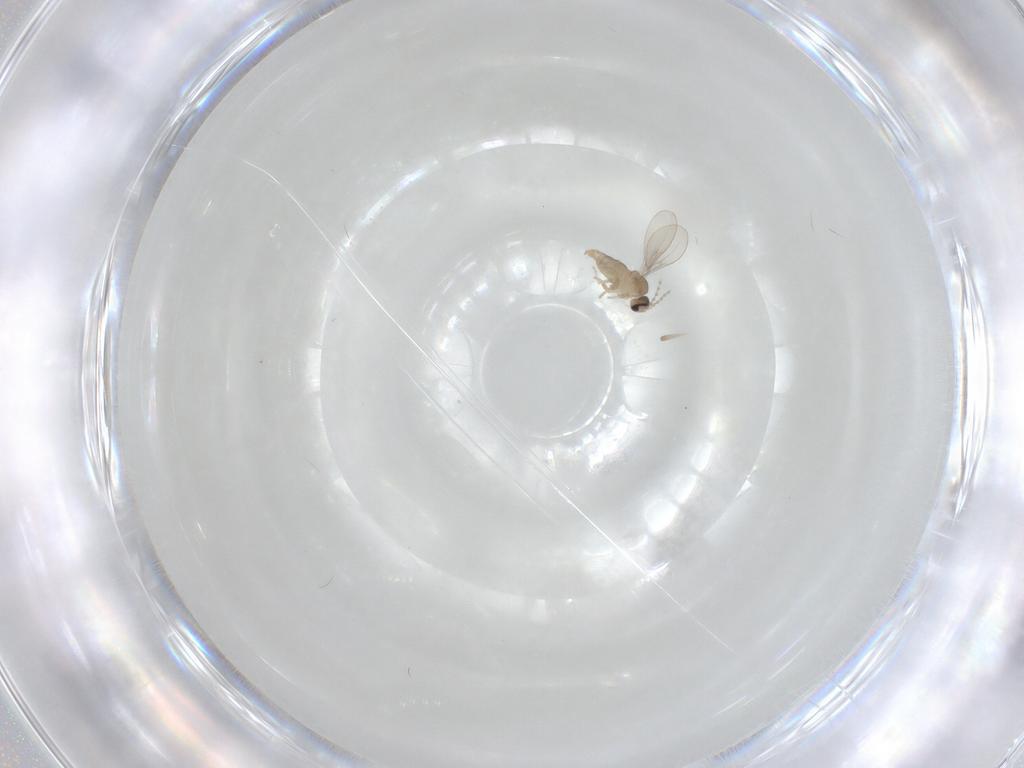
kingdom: Animalia
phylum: Arthropoda
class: Insecta
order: Diptera
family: Cecidomyiidae
